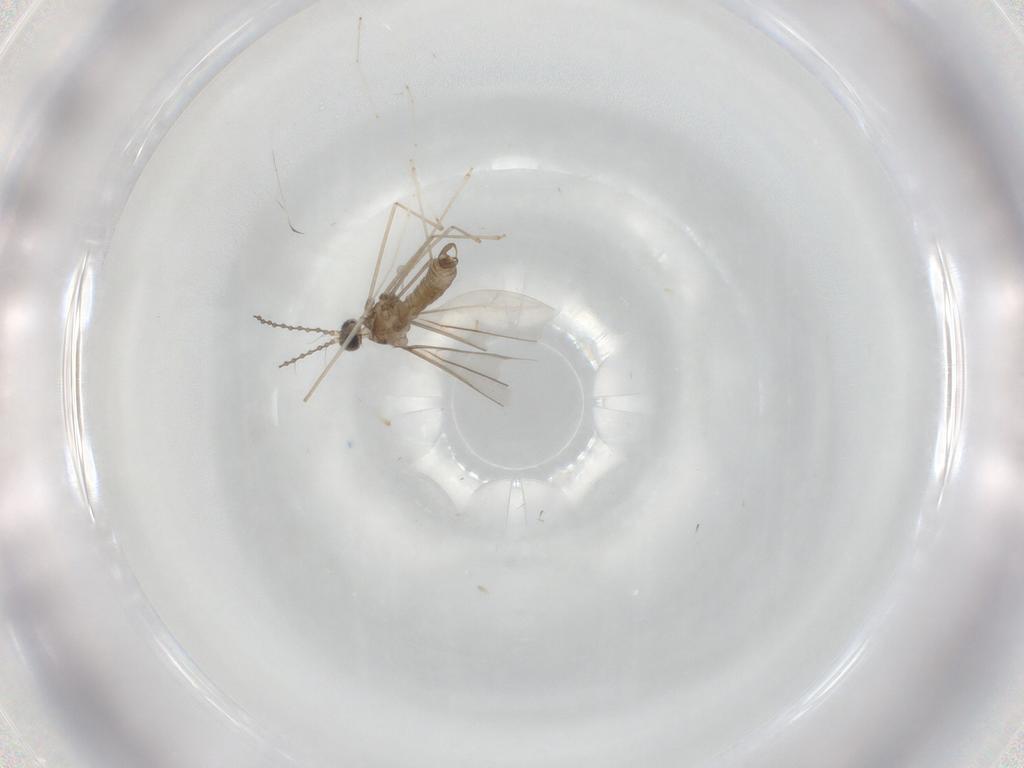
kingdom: Animalia
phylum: Arthropoda
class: Insecta
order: Diptera
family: Cecidomyiidae
